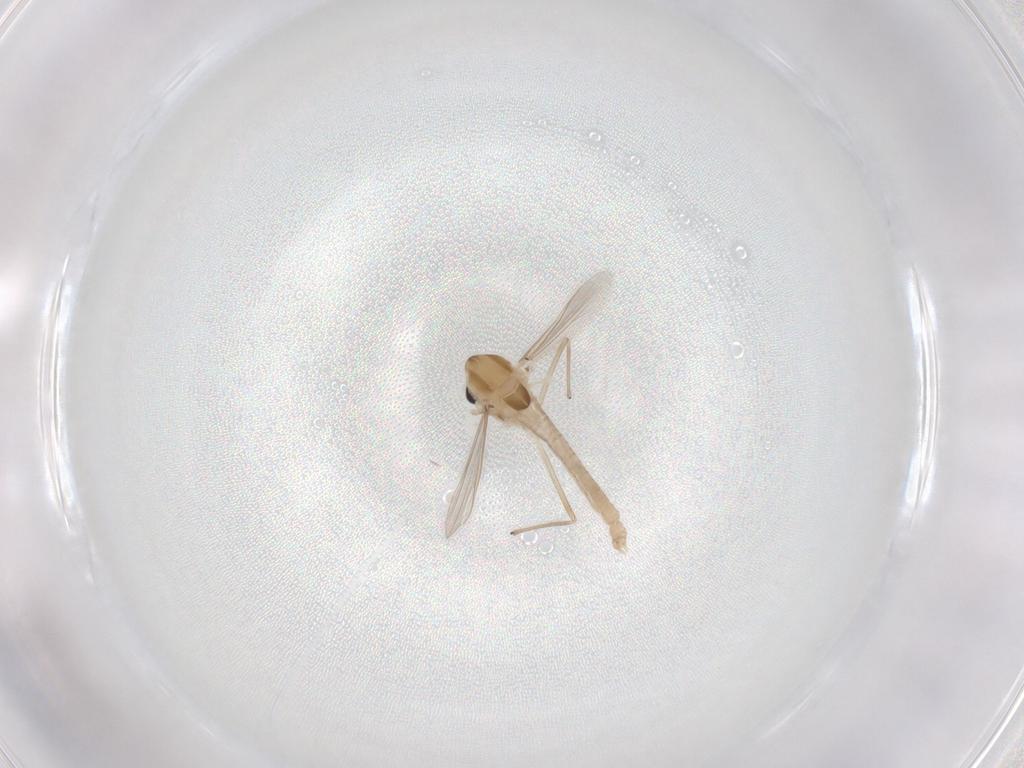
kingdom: Animalia
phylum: Arthropoda
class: Insecta
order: Diptera
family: Chironomidae
